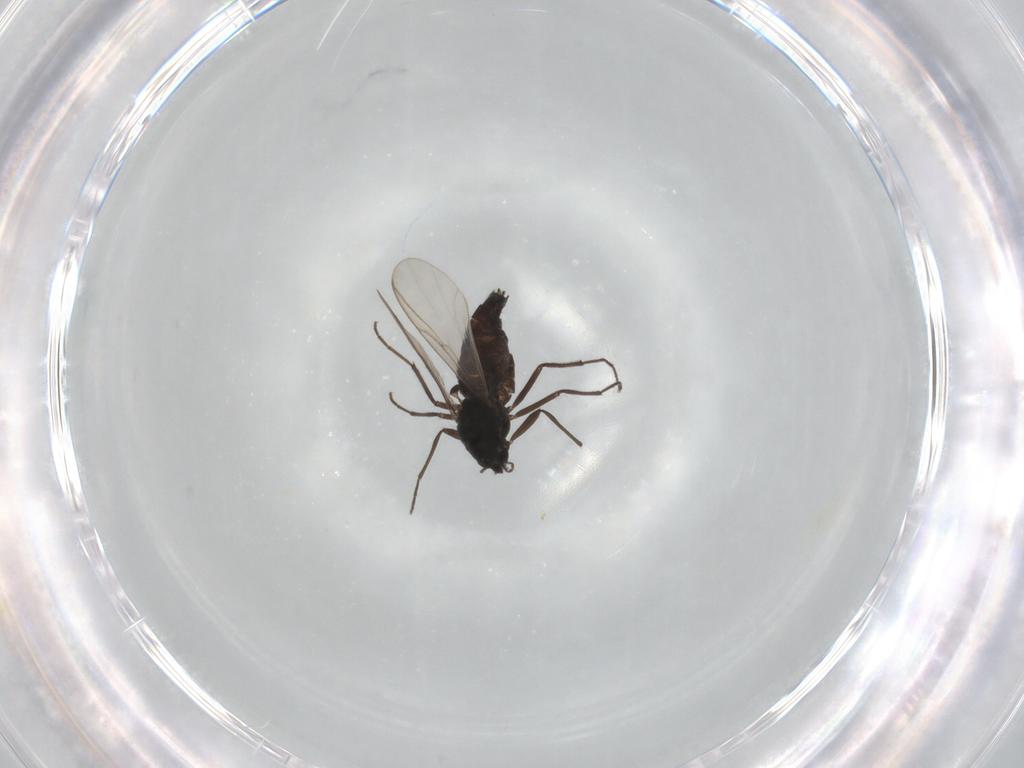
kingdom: Animalia
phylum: Arthropoda
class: Insecta
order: Diptera
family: Chironomidae
